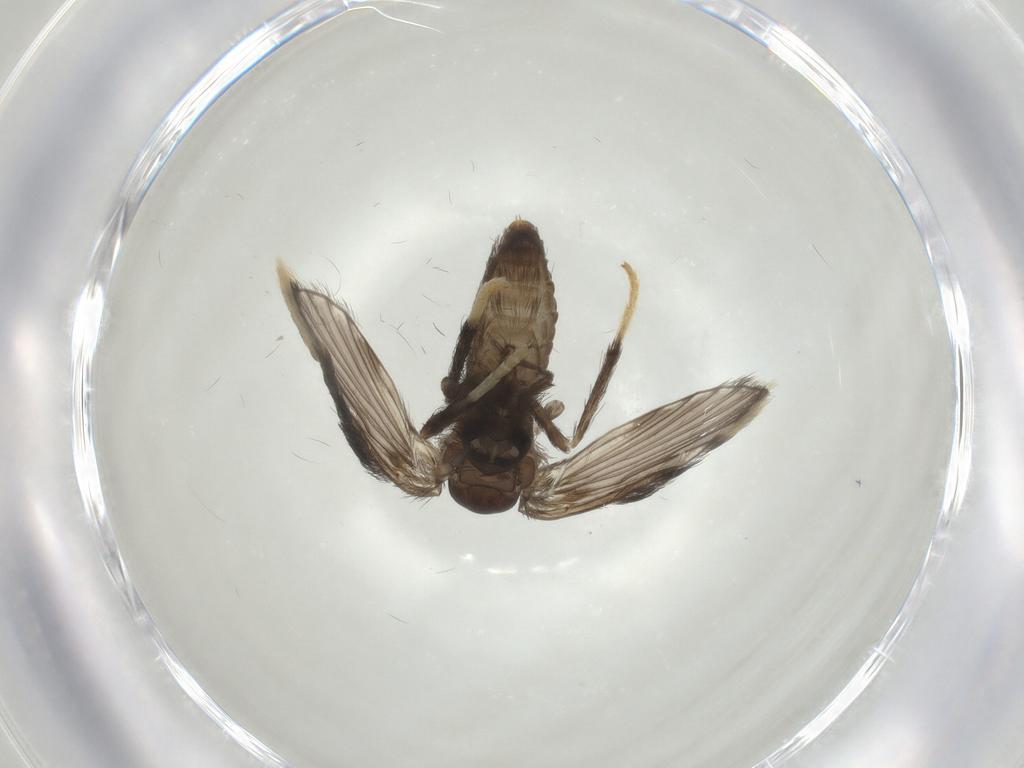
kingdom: Animalia
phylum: Arthropoda
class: Insecta
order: Diptera
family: Psychodidae
